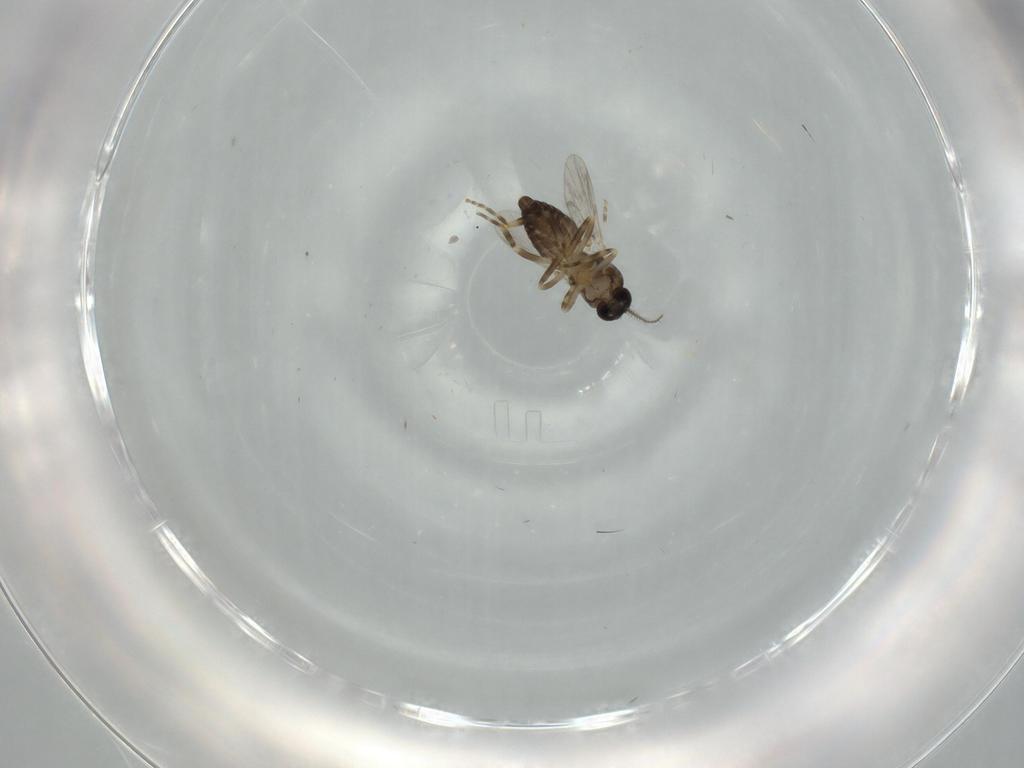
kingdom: Animalia
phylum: Arthropoda
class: Insecta
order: Diptera
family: Ceratopogonidae
